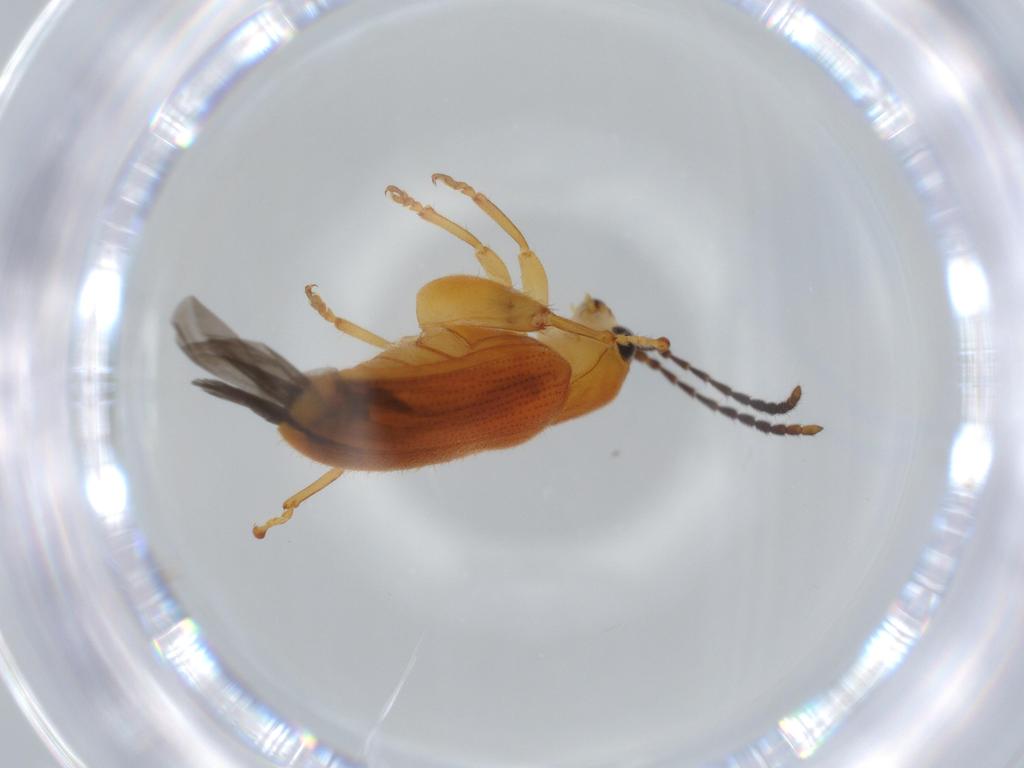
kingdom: Animalia
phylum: Arthropoda
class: Insecta
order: Coleoptera
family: Chrysomelidae
